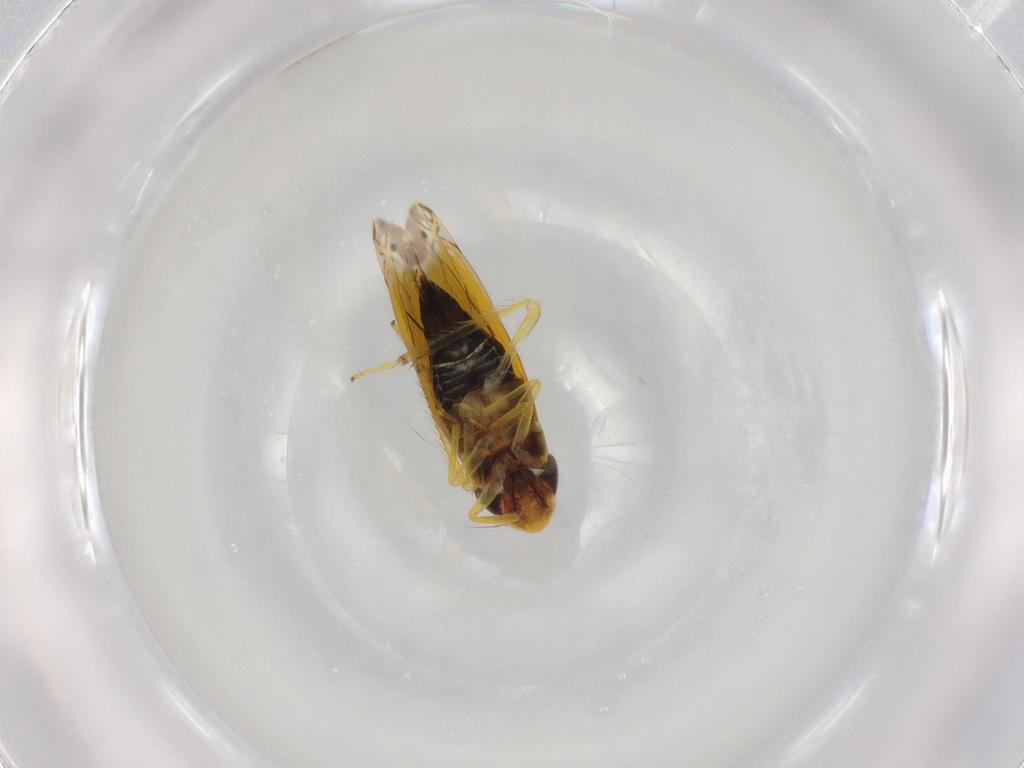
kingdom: Animalia
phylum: Arthropoda
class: Insecta
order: Hemiptera
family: Cicadellidae
